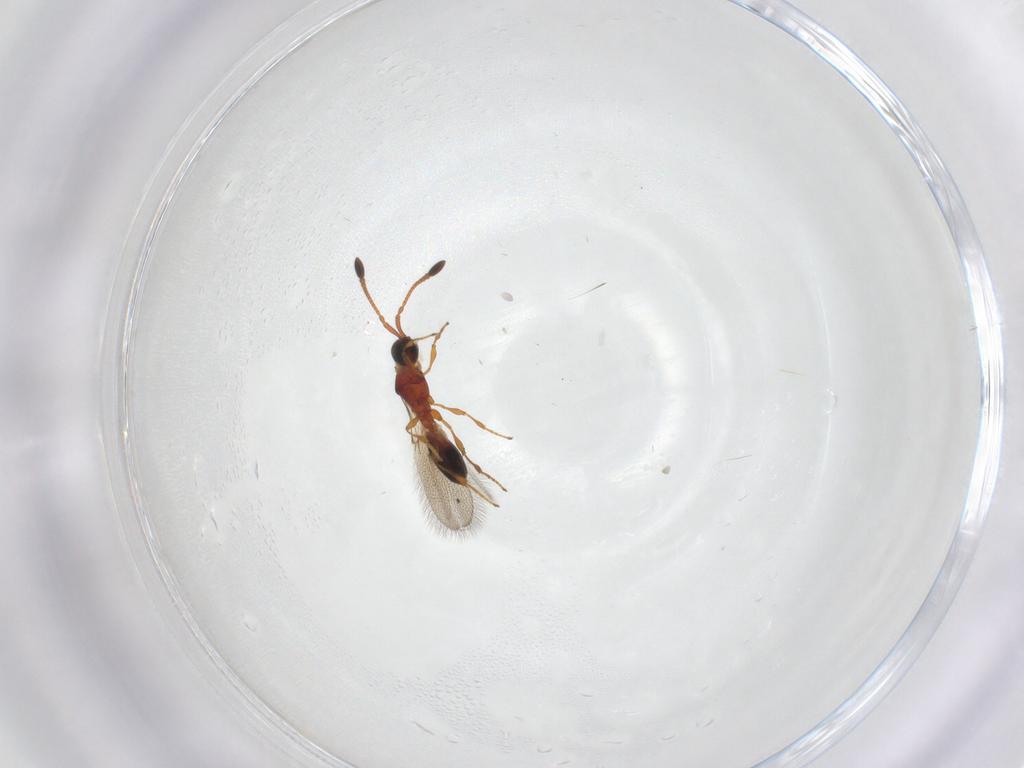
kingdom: Animalia
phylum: Arthropoda
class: Insecta
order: Hymenoptera
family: Diapriidae
